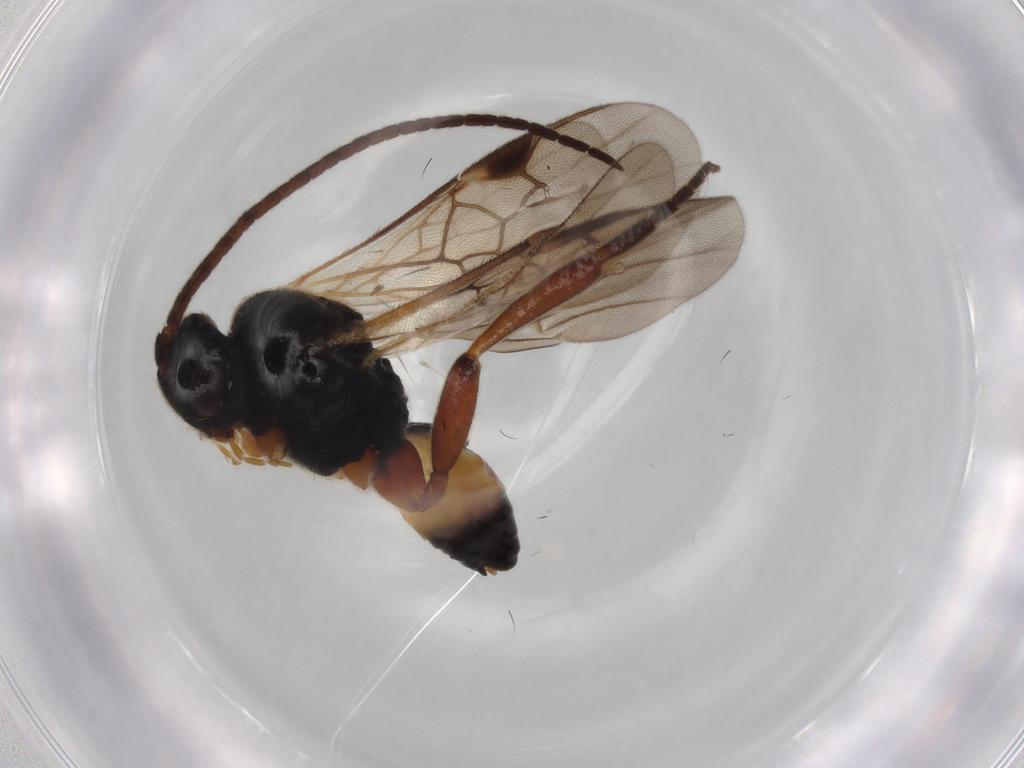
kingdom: Animalia
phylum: Arthropoda
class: Insecta
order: Hymenoptera
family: Braconidae
